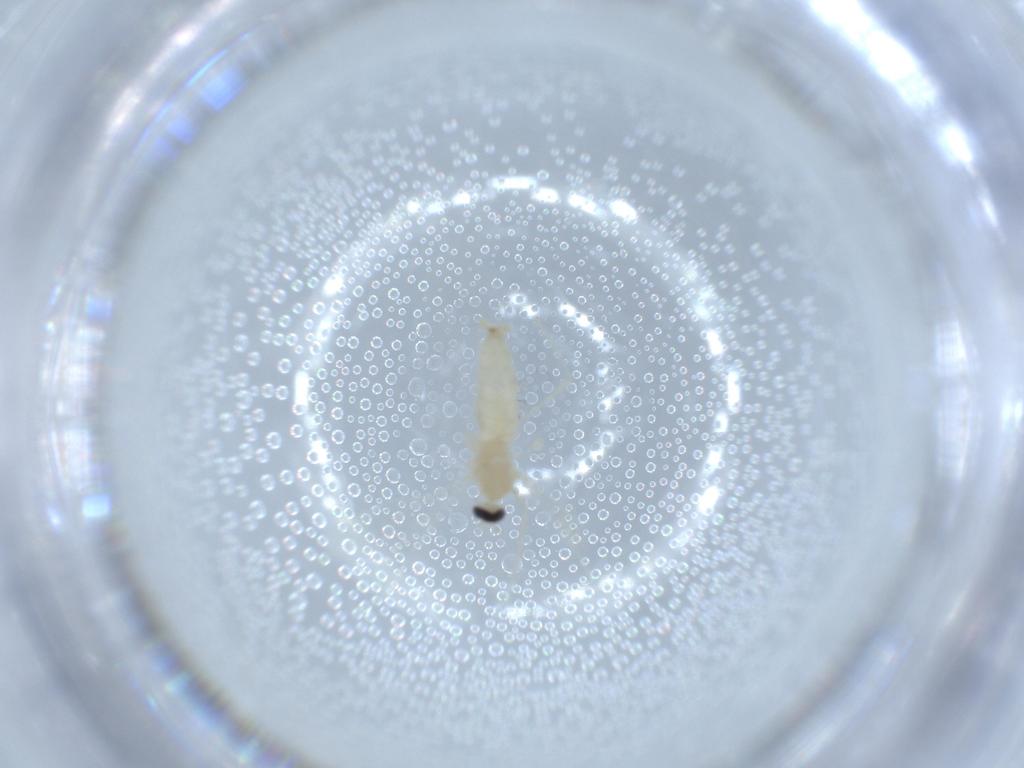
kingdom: Animalia
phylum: Arthropoda
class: Insecta
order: Diptera
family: Cecidomyiidae
